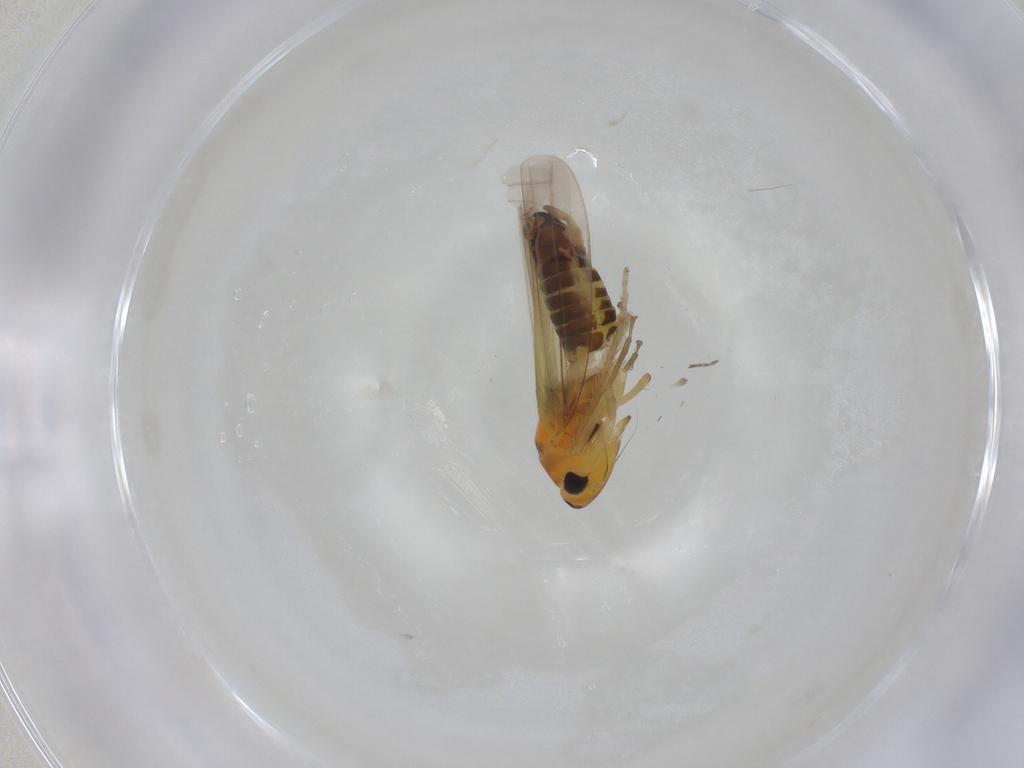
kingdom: Animalia
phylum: Arthropoda
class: Insecta
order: Hemiptera
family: Cicadellidae
